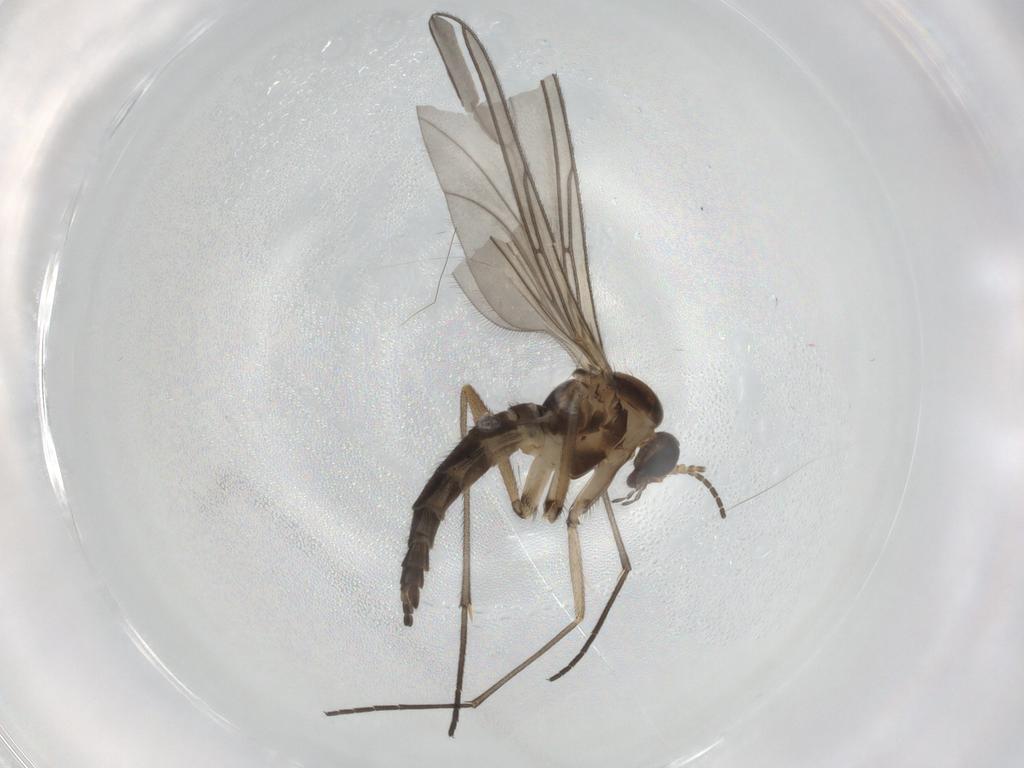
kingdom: Animalia
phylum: Arthropoda
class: Insecta
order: Diptera
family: Sciaridae
